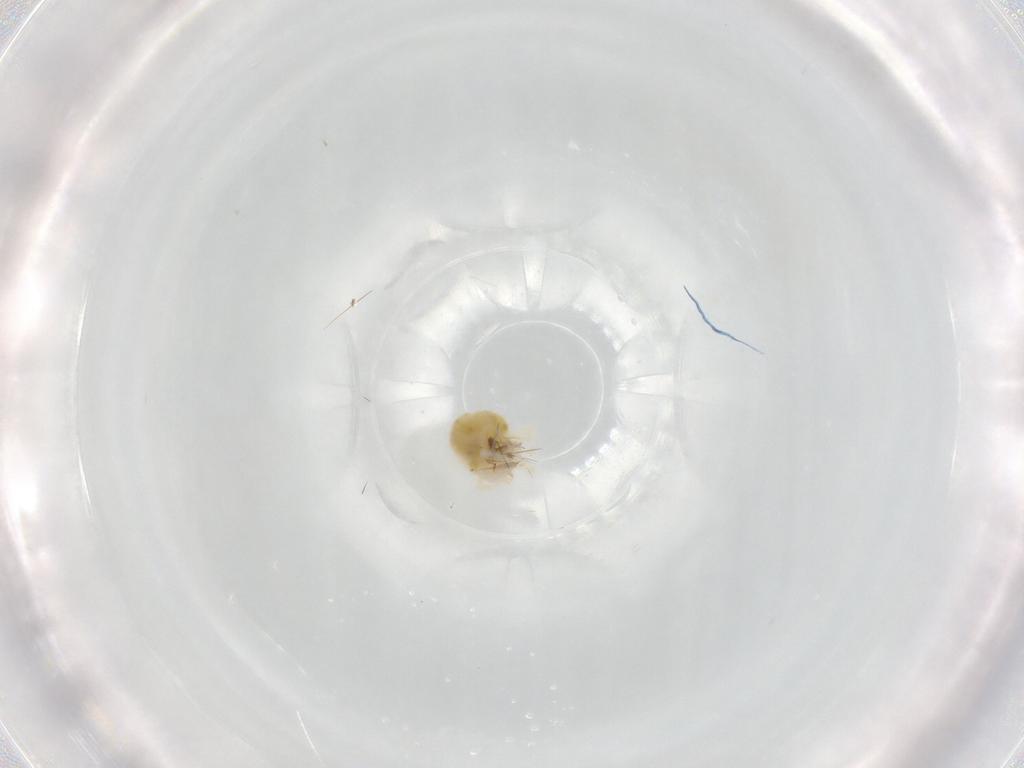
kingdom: Animalia
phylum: Arthropoda
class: Arachnida
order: Trombidiformes
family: Anystidae
